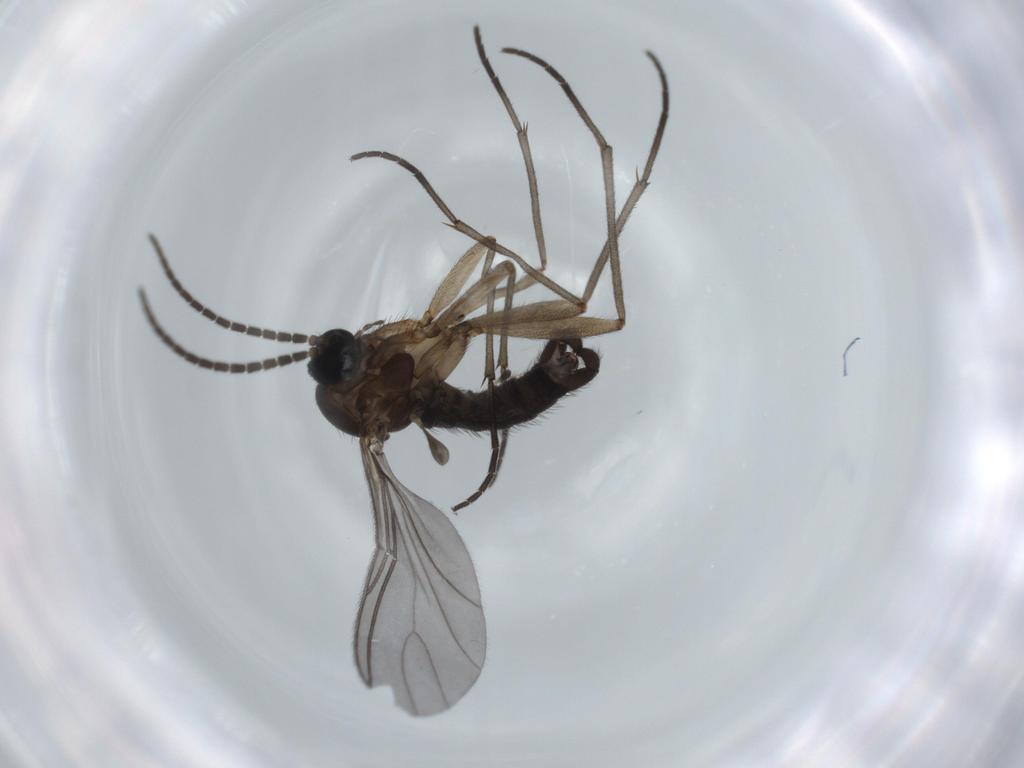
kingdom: Animalia
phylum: Arthropoda
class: Insecta
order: Diptera
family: Sciaridae
